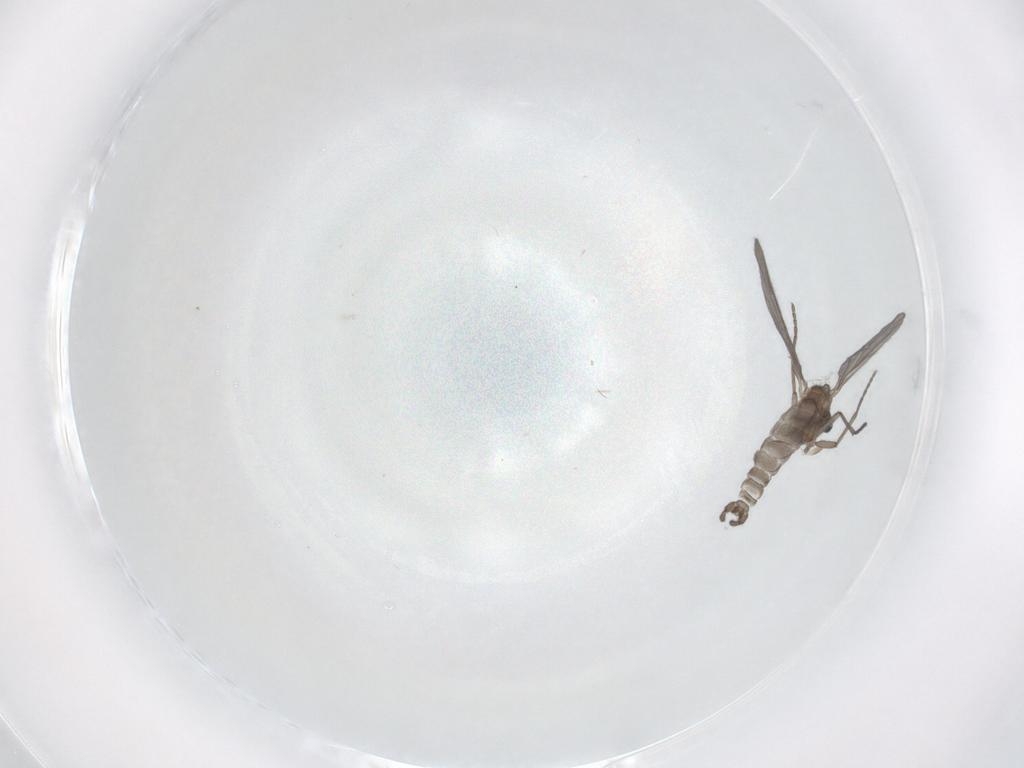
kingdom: Animalia
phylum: Arthropoda
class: Insecta
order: Diptera
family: Sciaridae
